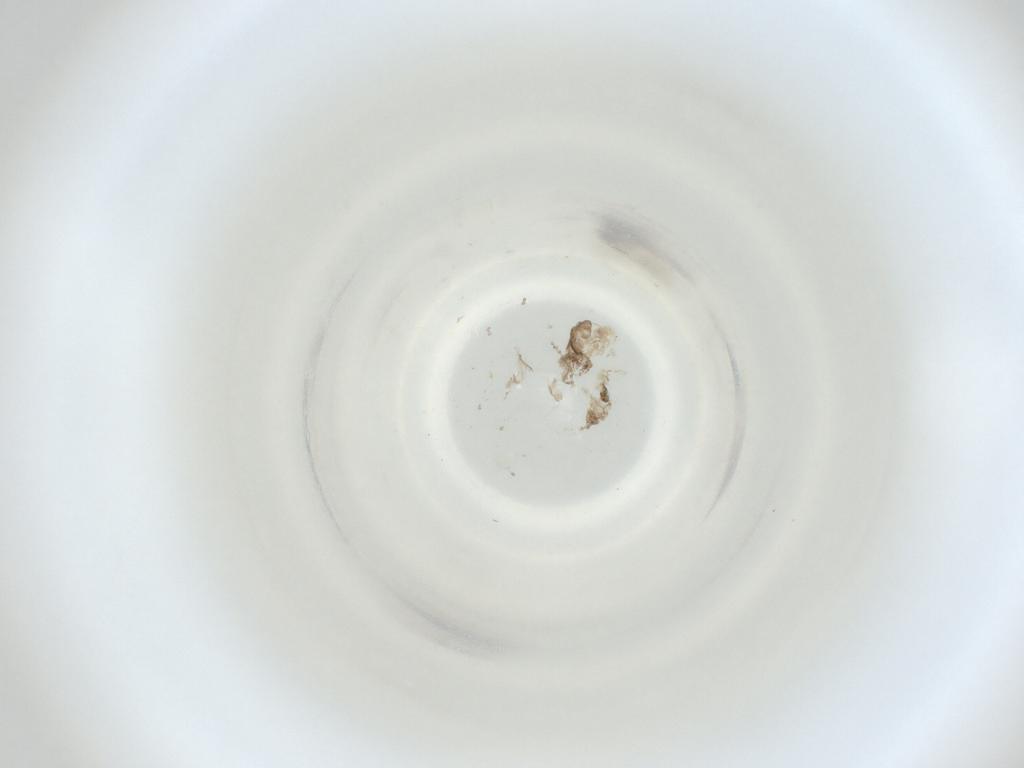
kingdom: Animalia
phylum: Arthropoda
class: Insecta
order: Diptera
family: Cecidomyiidae
